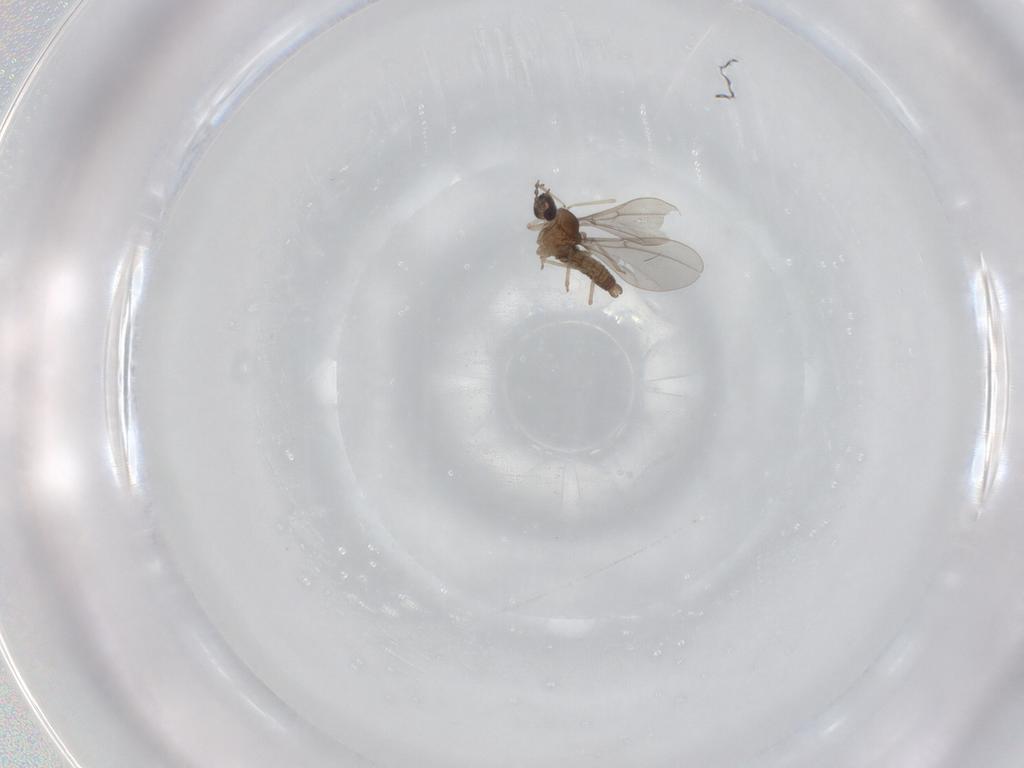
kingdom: Animalia
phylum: Arthropoda
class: Insecta
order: Diptera
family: Cecidomyiidae
